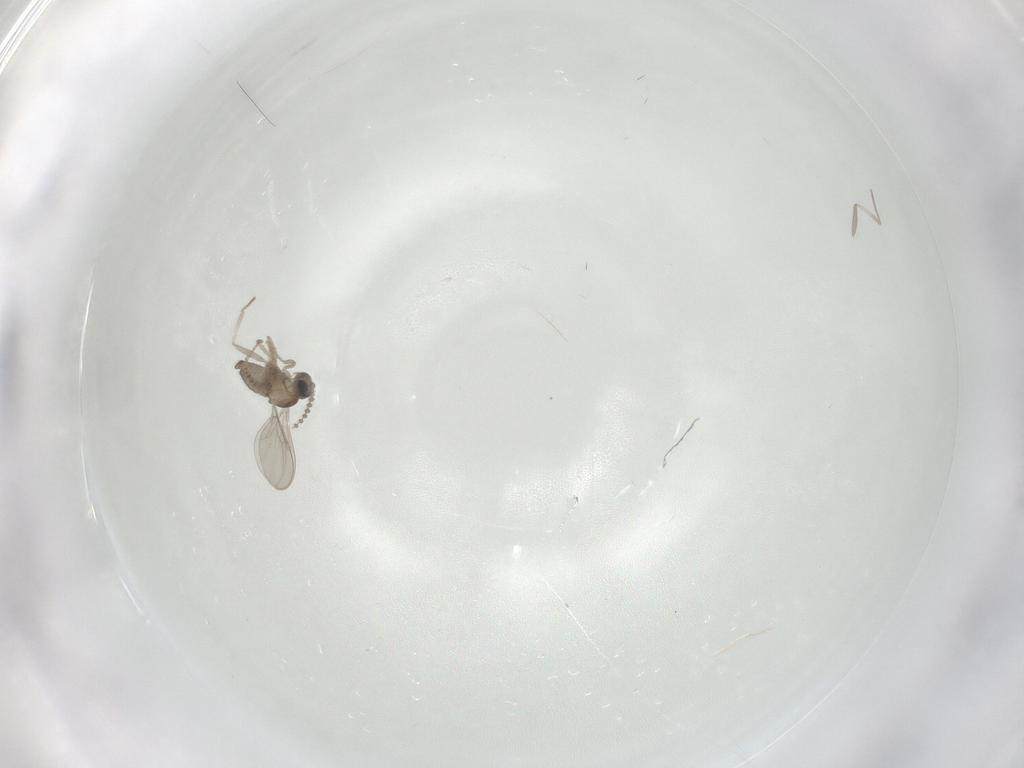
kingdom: Animalia
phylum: Arthropoda
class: Insecta
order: Diptera
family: Cecidomyiidae
